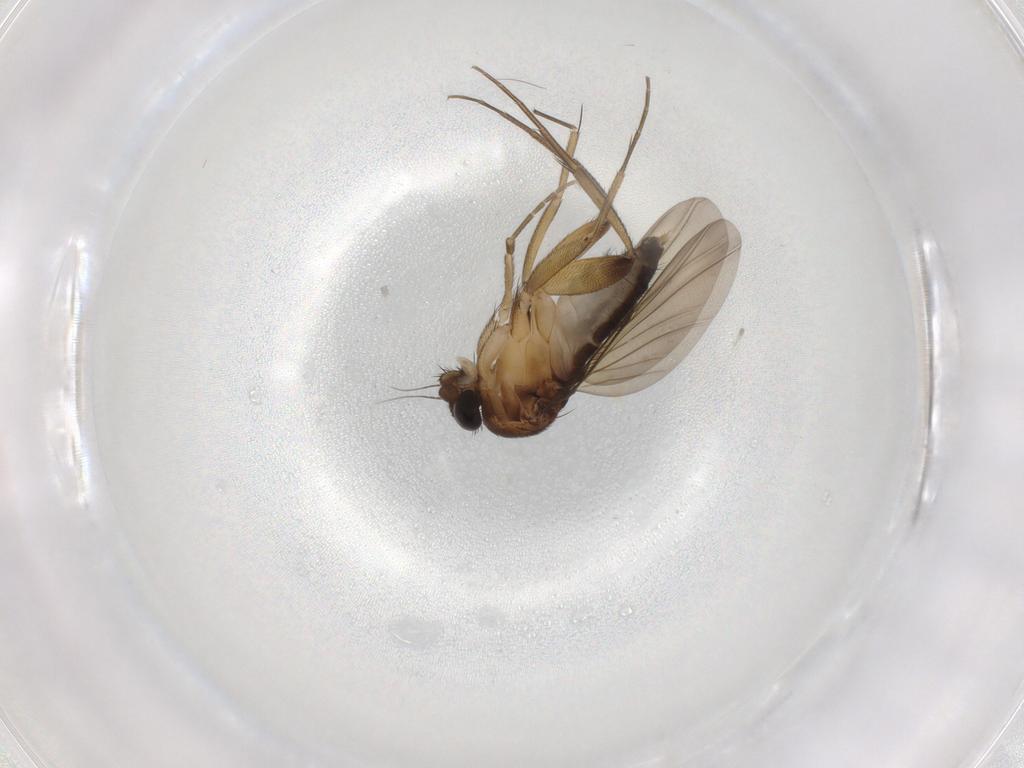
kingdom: Animalia
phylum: Arthropoda
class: Insecta
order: Diptera
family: Phoridae
